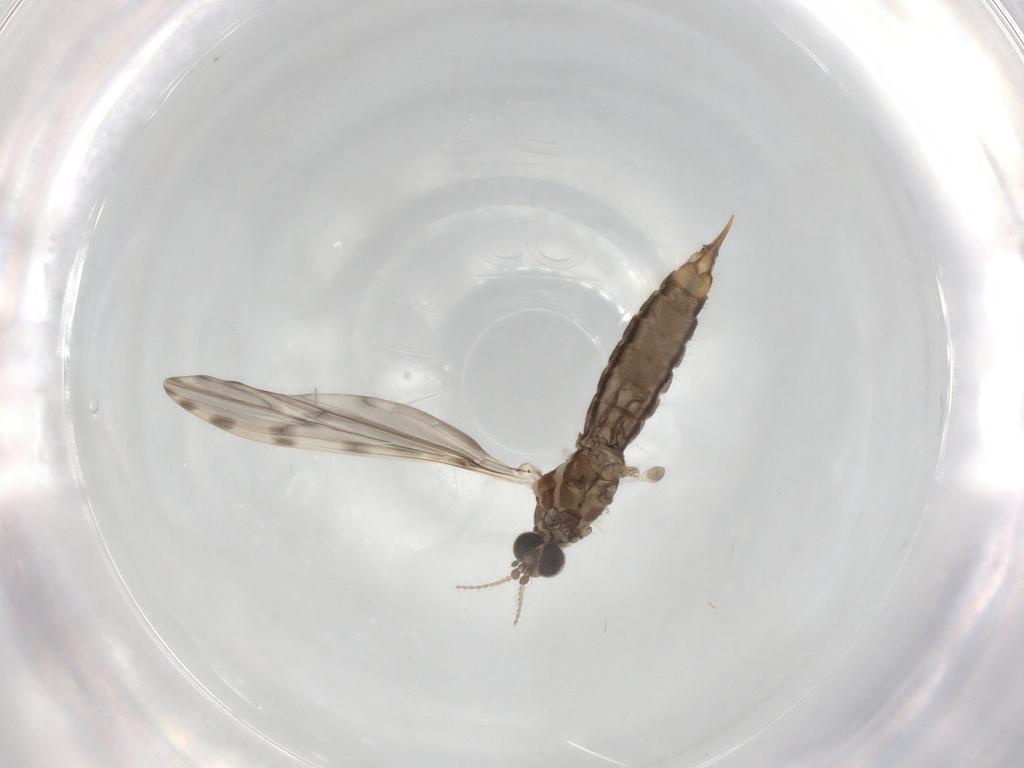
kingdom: Animalia
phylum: Arthropoda
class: Insecta
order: Diptera
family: Limoniidae
